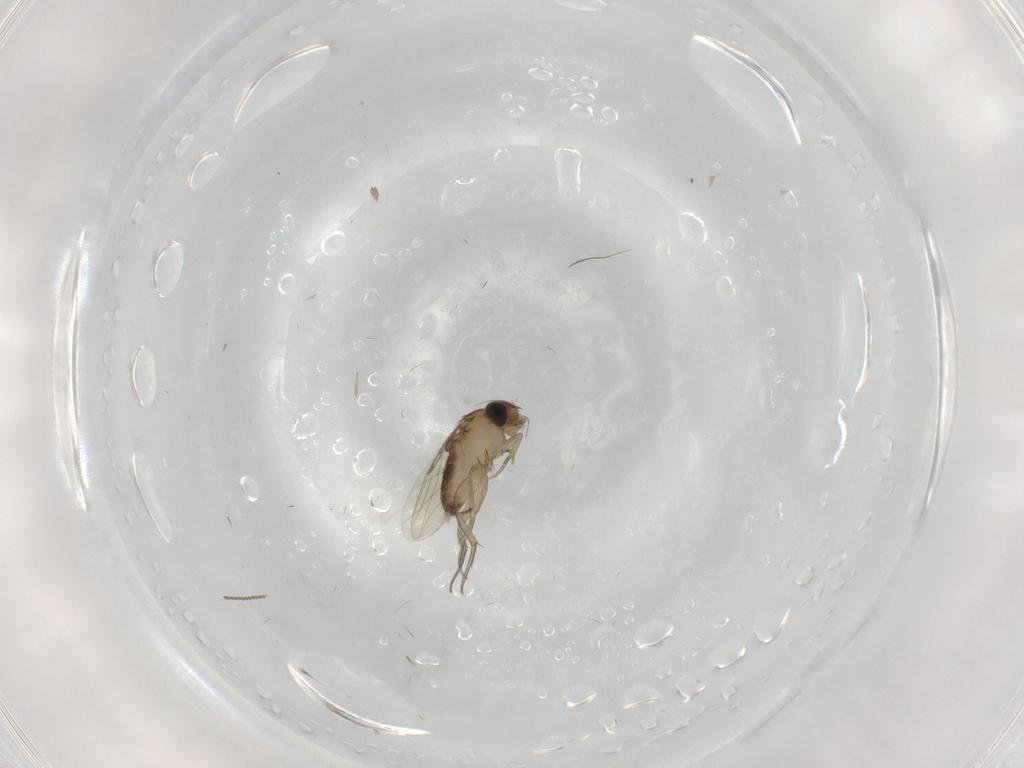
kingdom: Animalia
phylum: Arthropoda
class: Insecta
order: Diptera
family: Phoridae
